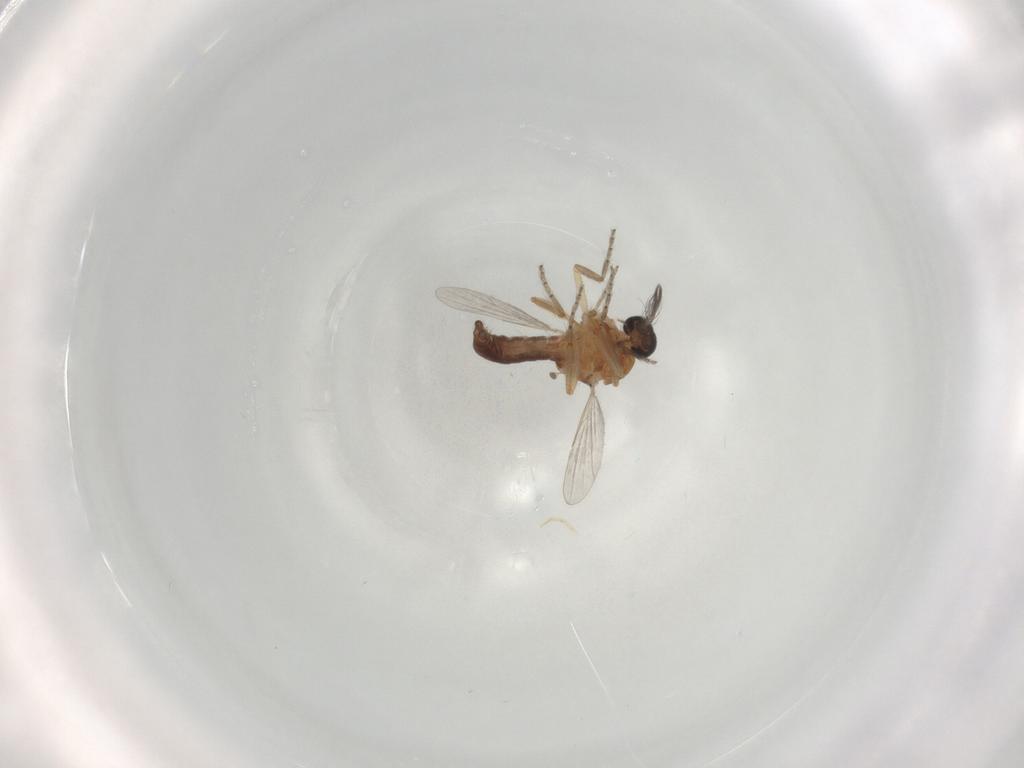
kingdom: Animalia
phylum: Arthropoda
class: Insecta
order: Diptera
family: Ceratopogonidae
